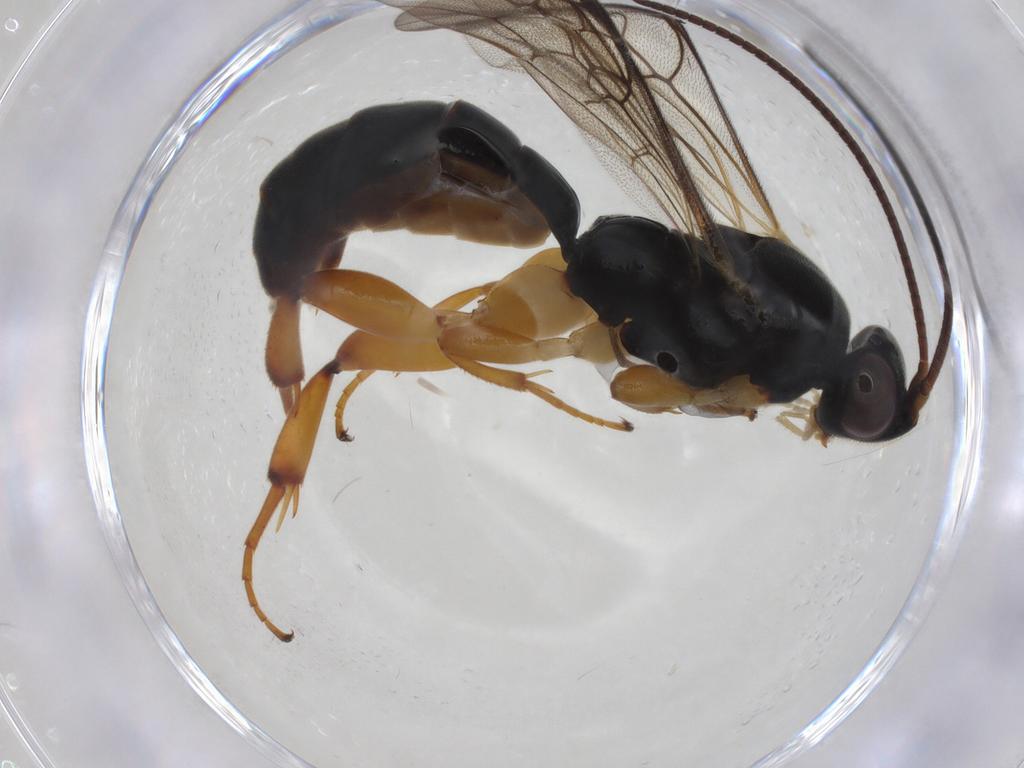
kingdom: Animalia
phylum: Arthropoda
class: Insecta
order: Hymenoptera
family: Ichneumonidae
